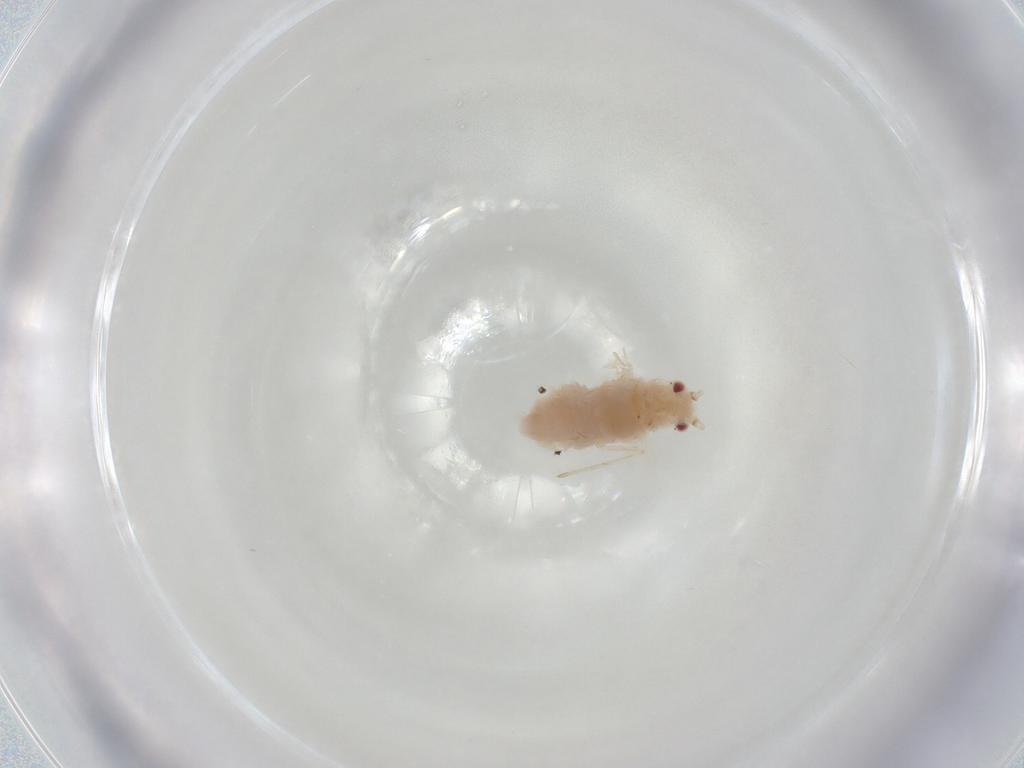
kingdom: Animalia
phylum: Arthropoda
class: Insecta
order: Hemiptera
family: Aphididae
